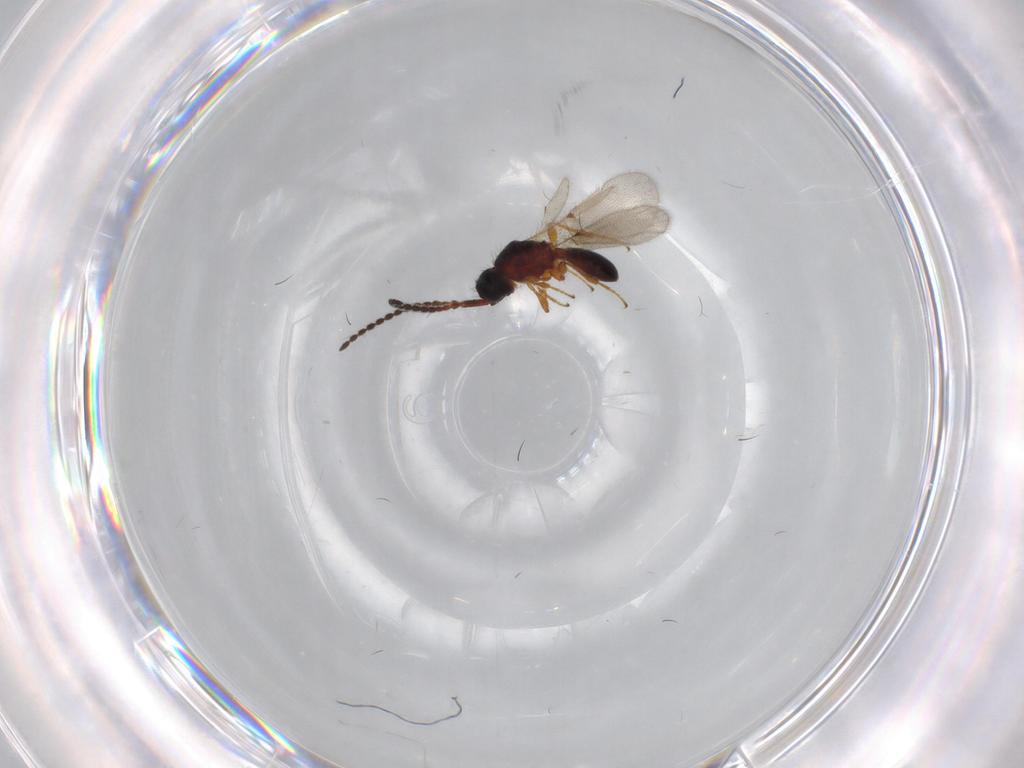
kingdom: Animalia
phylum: Arthropoda
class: Insecta
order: Hymenoptera
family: Diapriidae
